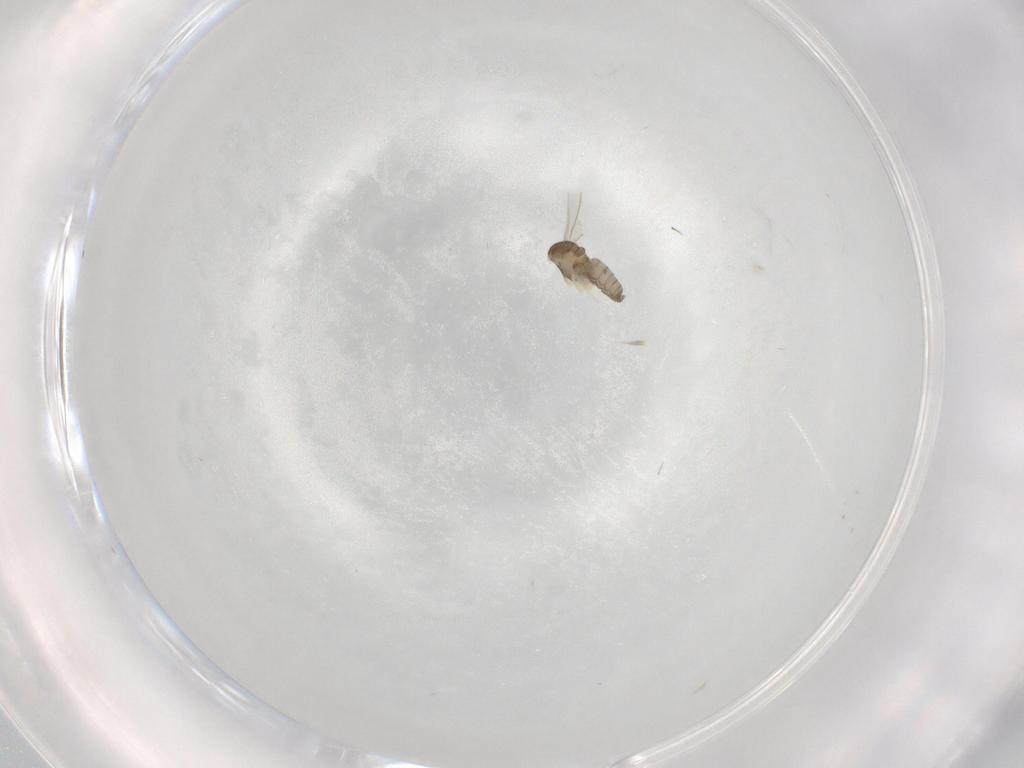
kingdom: Animalia
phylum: Arthropoda
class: Insecta
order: Diptera
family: Cecidomyiidae
